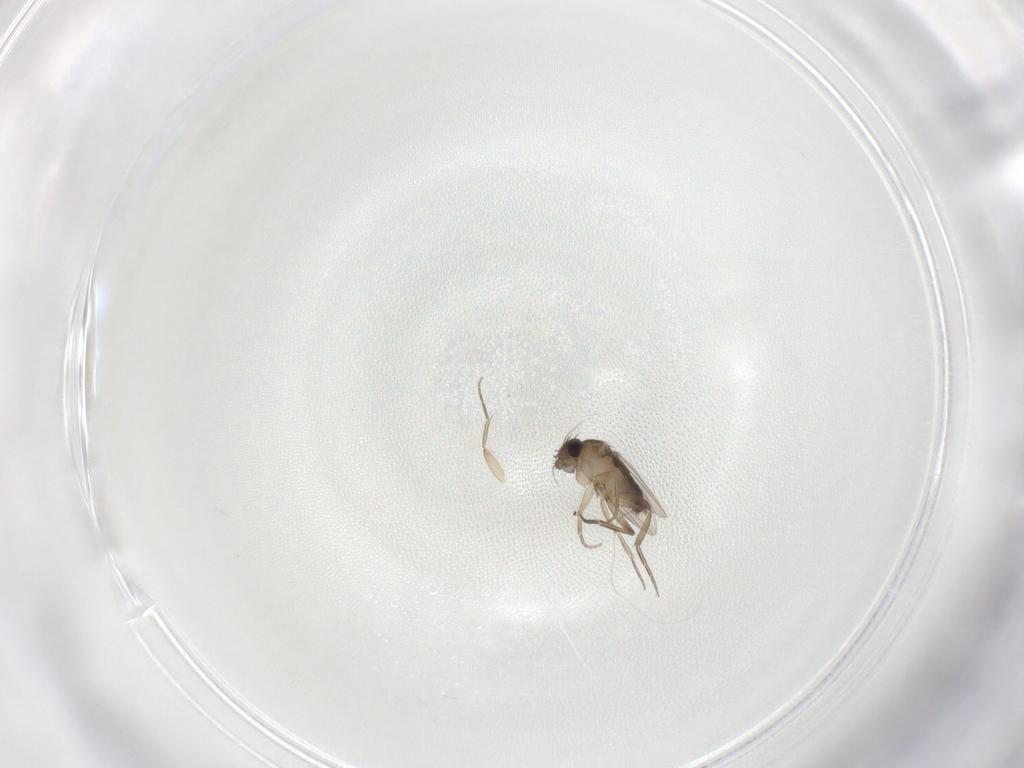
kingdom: Animalia
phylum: Arthropoda
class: Insecta
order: Diptera
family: Phoridae
